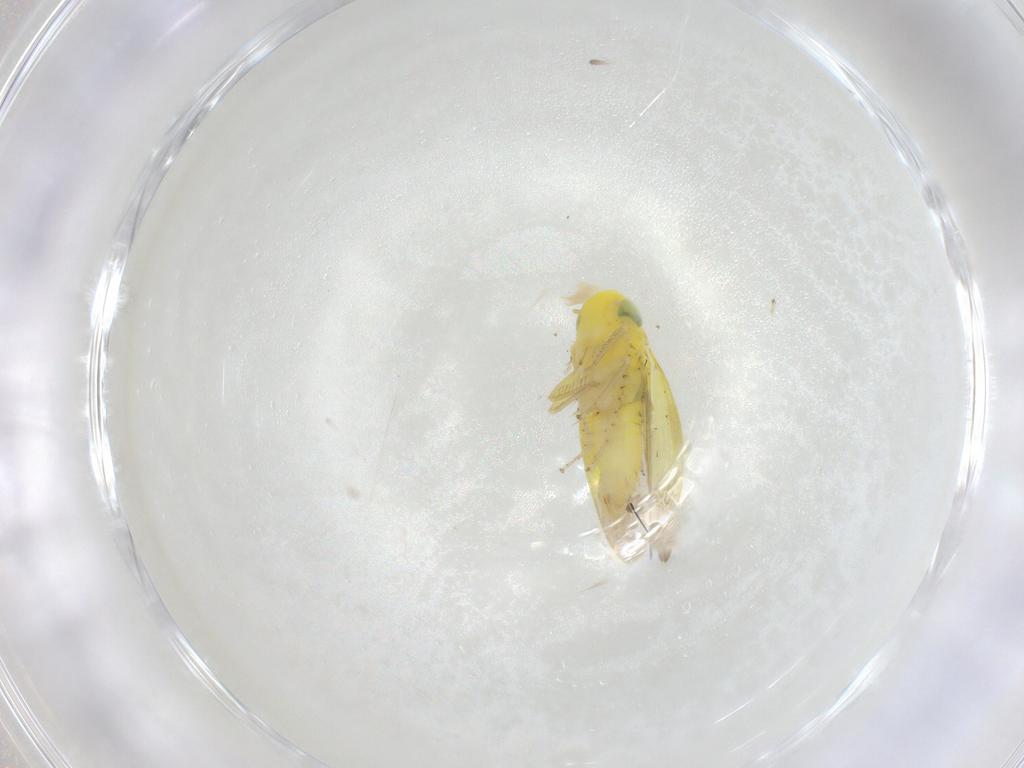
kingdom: Animalia
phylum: Arthropoda
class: Insecta
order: Hemiptera
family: Cicadellidae
